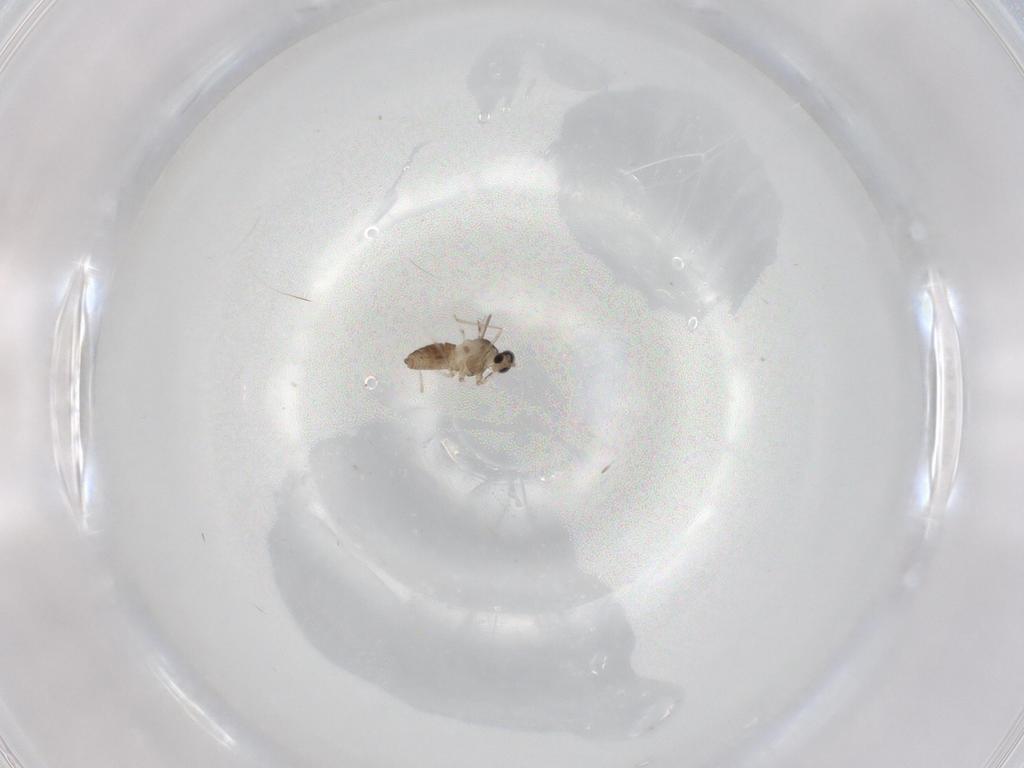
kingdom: Animalia
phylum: Arthropoda
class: Insecta
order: Diptera
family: Cecidomyiidae
